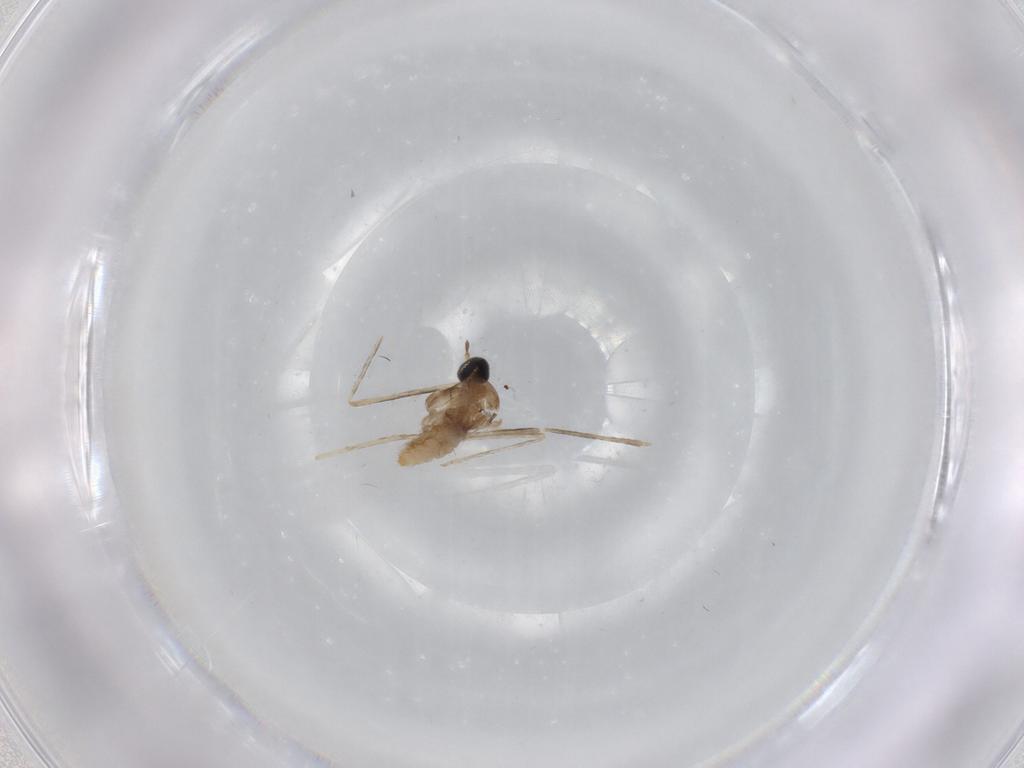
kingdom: Animalia
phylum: Arthropoda
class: Insecta
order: Diptera
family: Cecidomyiidae
